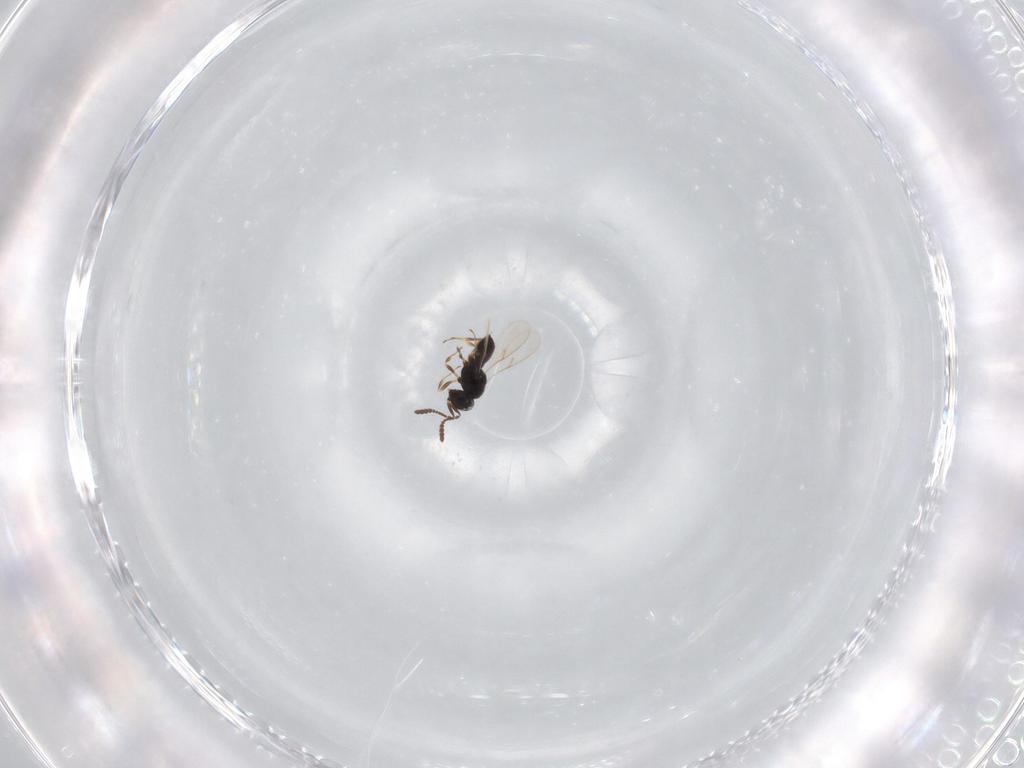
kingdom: Animalia
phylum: Arthropoda
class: Insecta
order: Hymenoptera
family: Scelionidae
